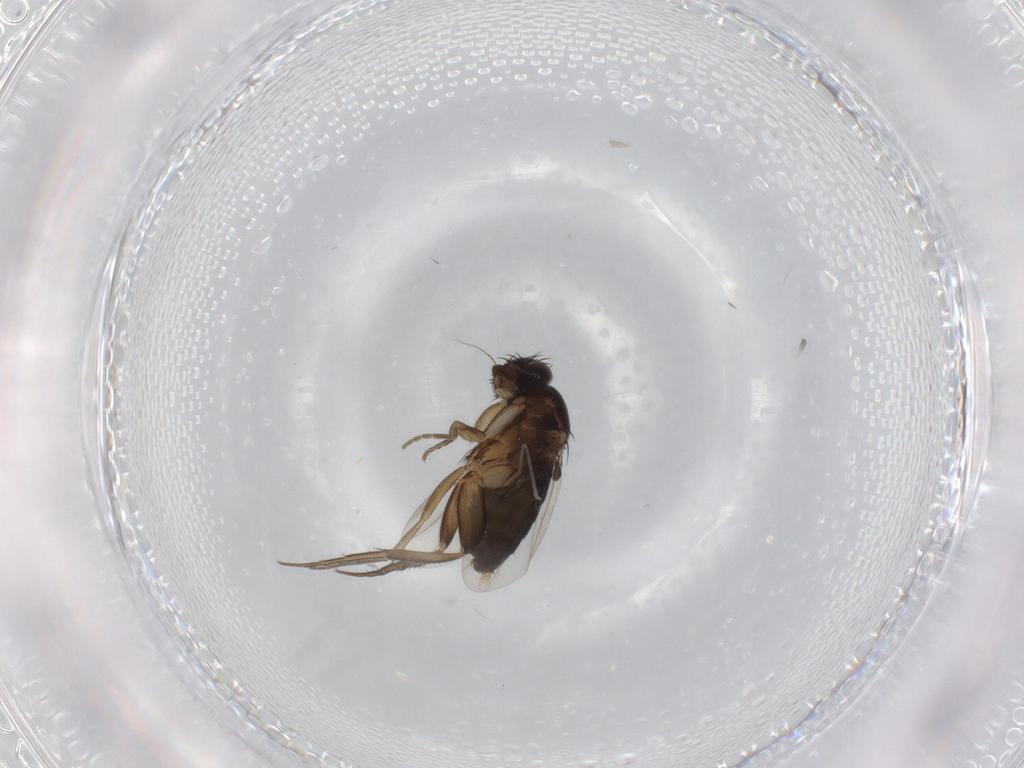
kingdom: Animalia
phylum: Arthropoda
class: Insecta
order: Diptera
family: Phoridae
